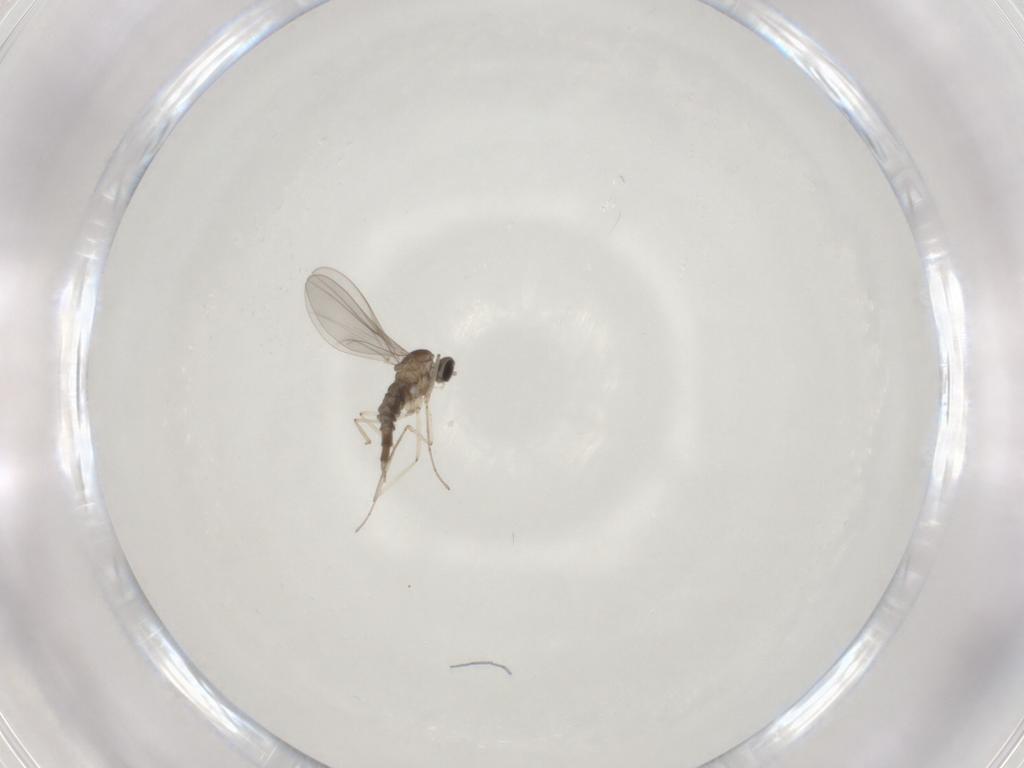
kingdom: Animalia
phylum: Arthropoda
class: Insecta
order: Diptera
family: Cecidomyiidae
